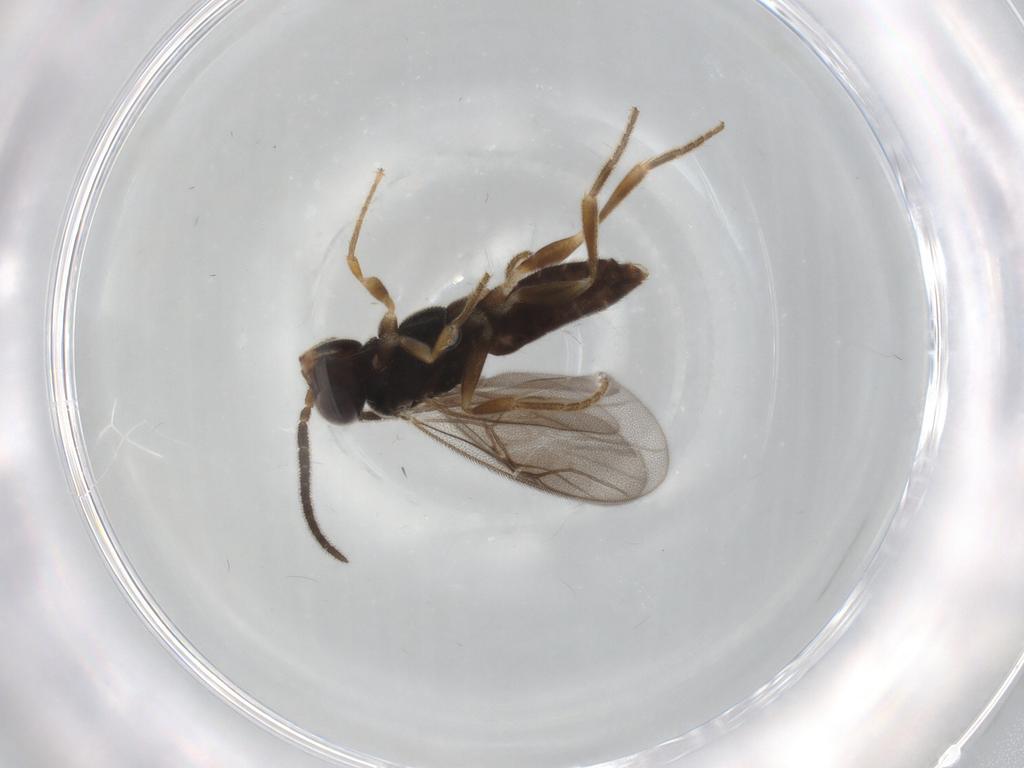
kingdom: Animalia
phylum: Arthropoda
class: Insecta
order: Hymenoptera
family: Dryinidae
